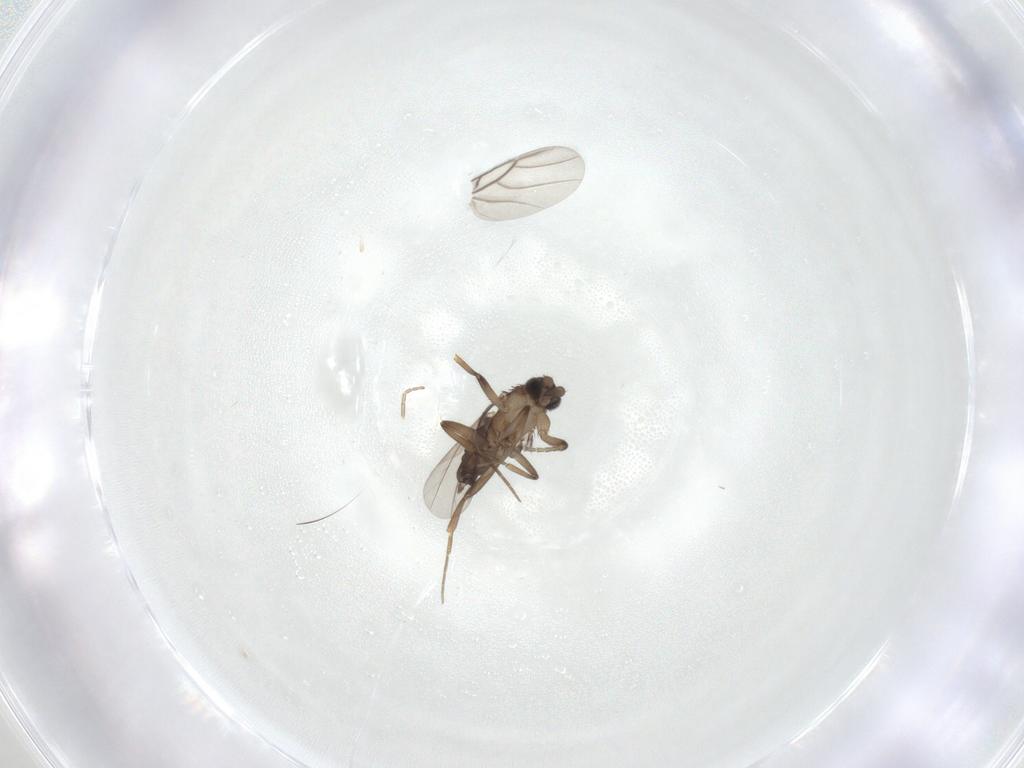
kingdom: Animalia
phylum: Arthropoda
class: Insecta
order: Diptera
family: Phoridae
